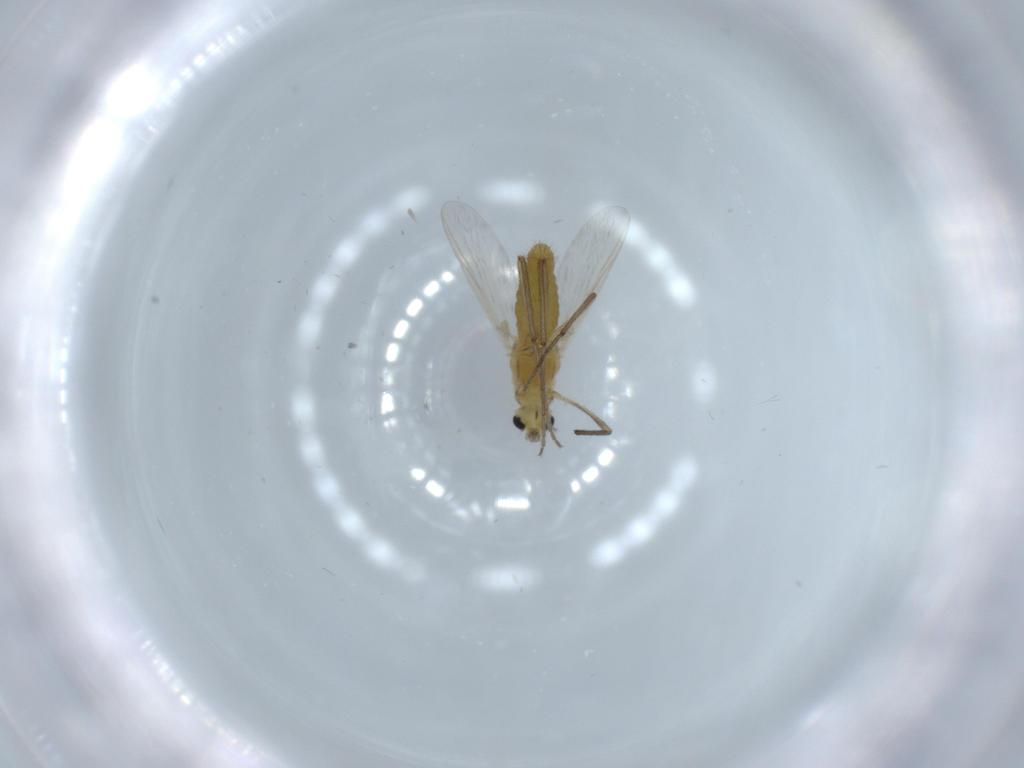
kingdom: Animalia
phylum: Arthropoda
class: Insecta
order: Diptera
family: Chironomidae
